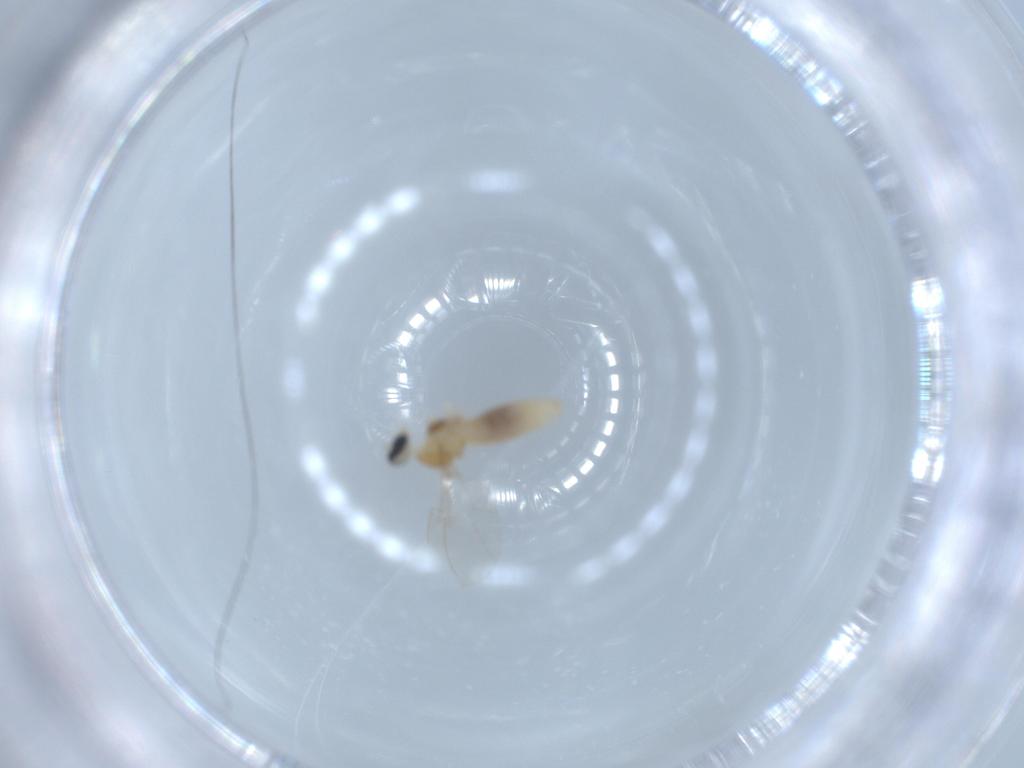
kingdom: Animalia
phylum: Arthropoda
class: Insecta
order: Diptera
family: Cecidomyiidae
